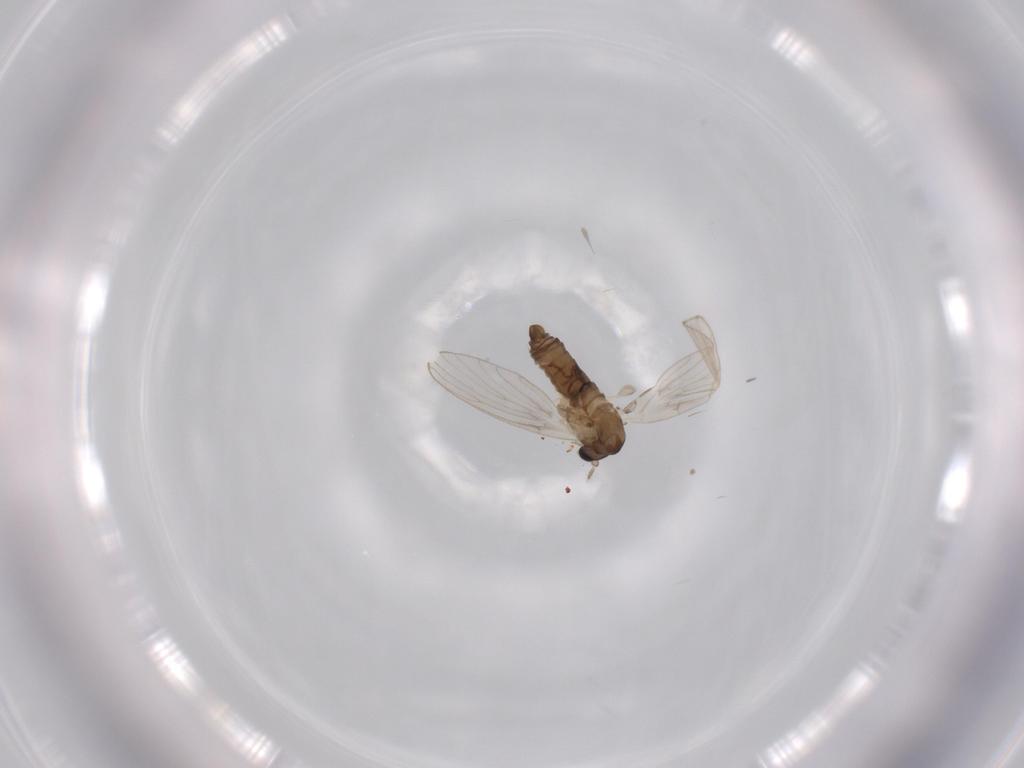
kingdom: Animalia
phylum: Arthropoda
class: Insecta
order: Diptera
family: Psychodidae
